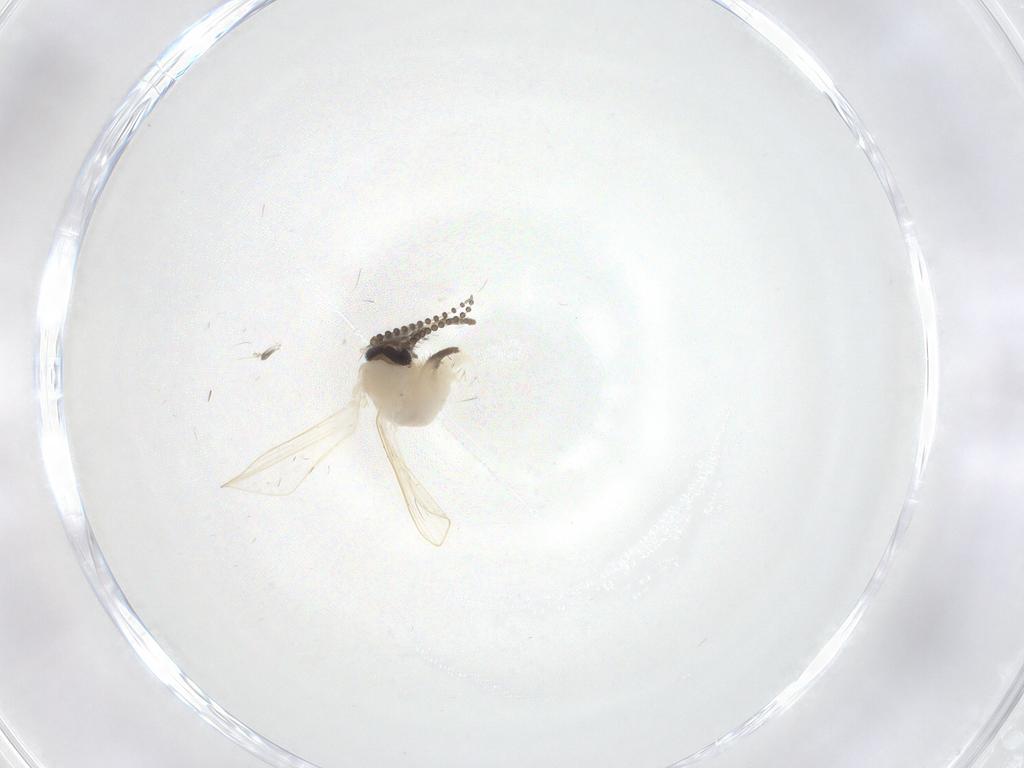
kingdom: Animalia
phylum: Arthropoda
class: Insecta
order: Diptera
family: Psychodidae
